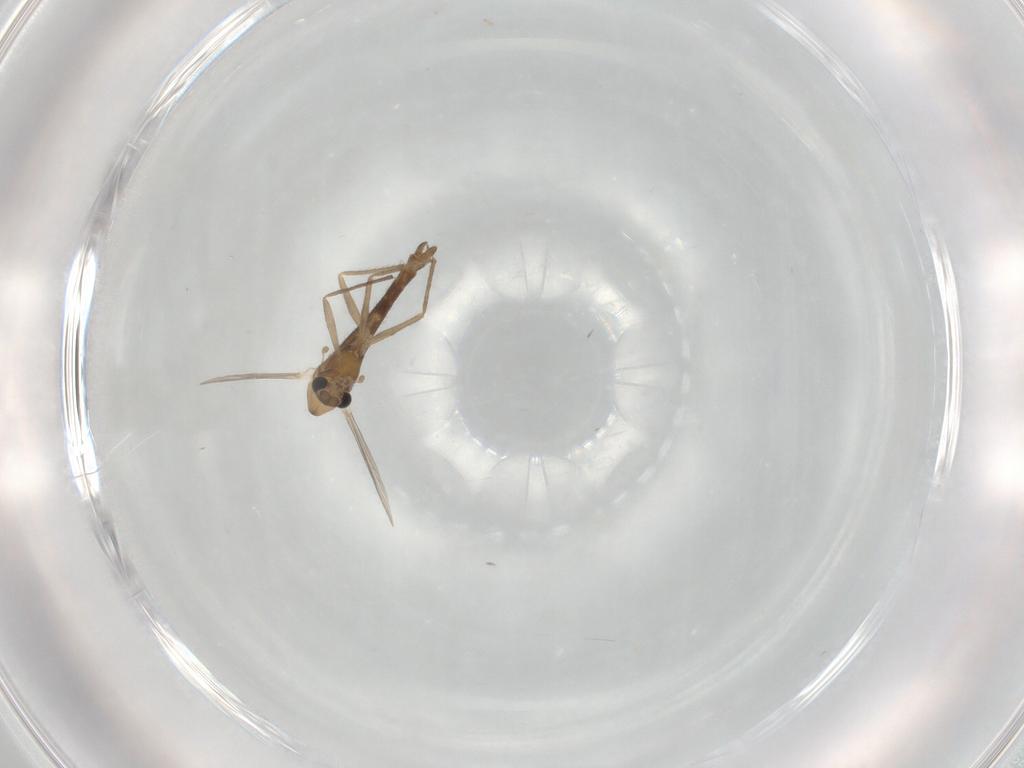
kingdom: Animalia
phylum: Arthropoda
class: Insecta
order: Diptera
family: Chironomidae
